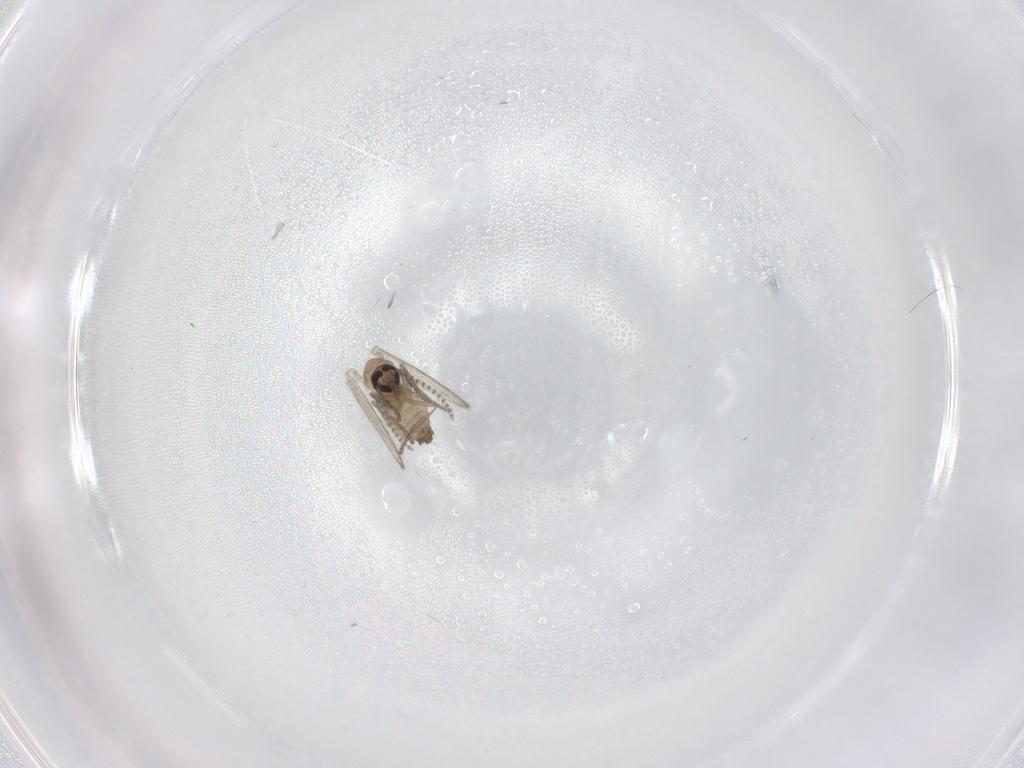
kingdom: Animalia
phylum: Arthropoda
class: Insecta
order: Diptera
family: Psychodidae
